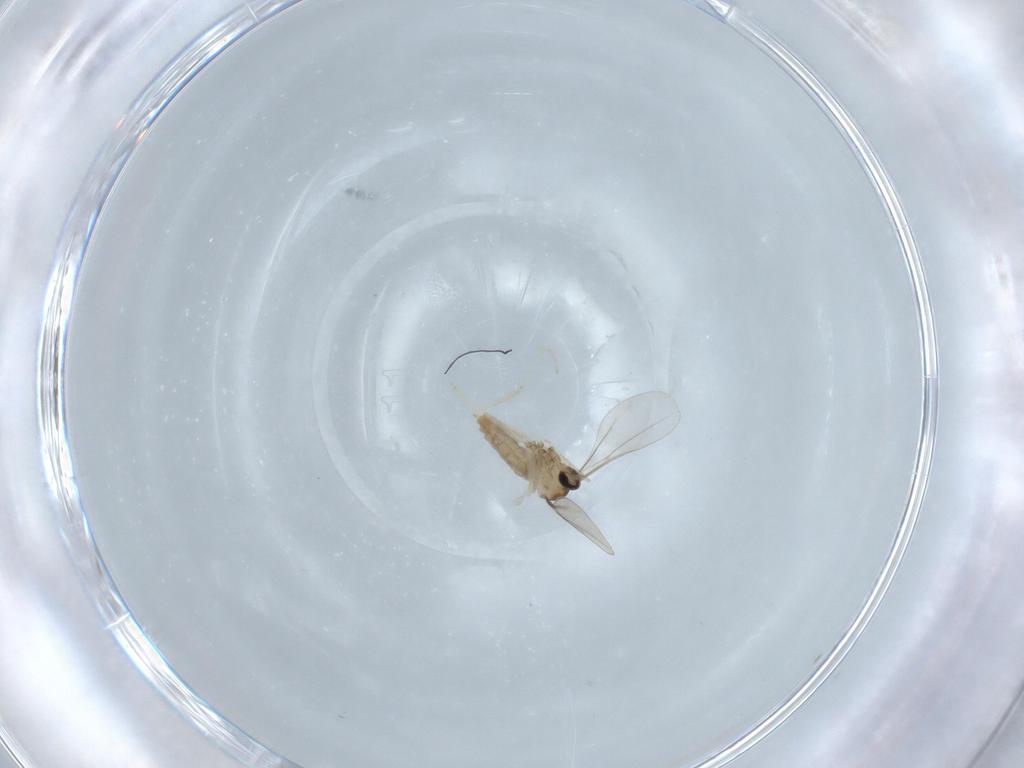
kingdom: Animalia
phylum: Arthropoda
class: Insecta
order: Diptera
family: Cecidomyiidae
